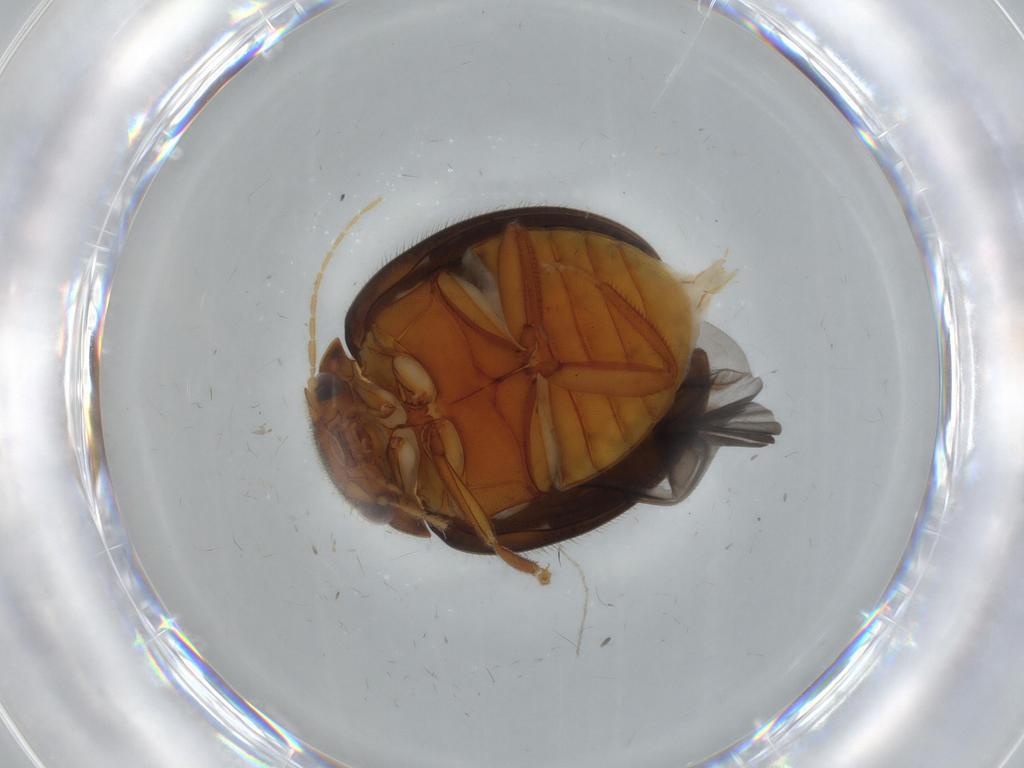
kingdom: Animalia
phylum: Arthropoda
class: Insecta
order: Coleoptera
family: Scirtidae
